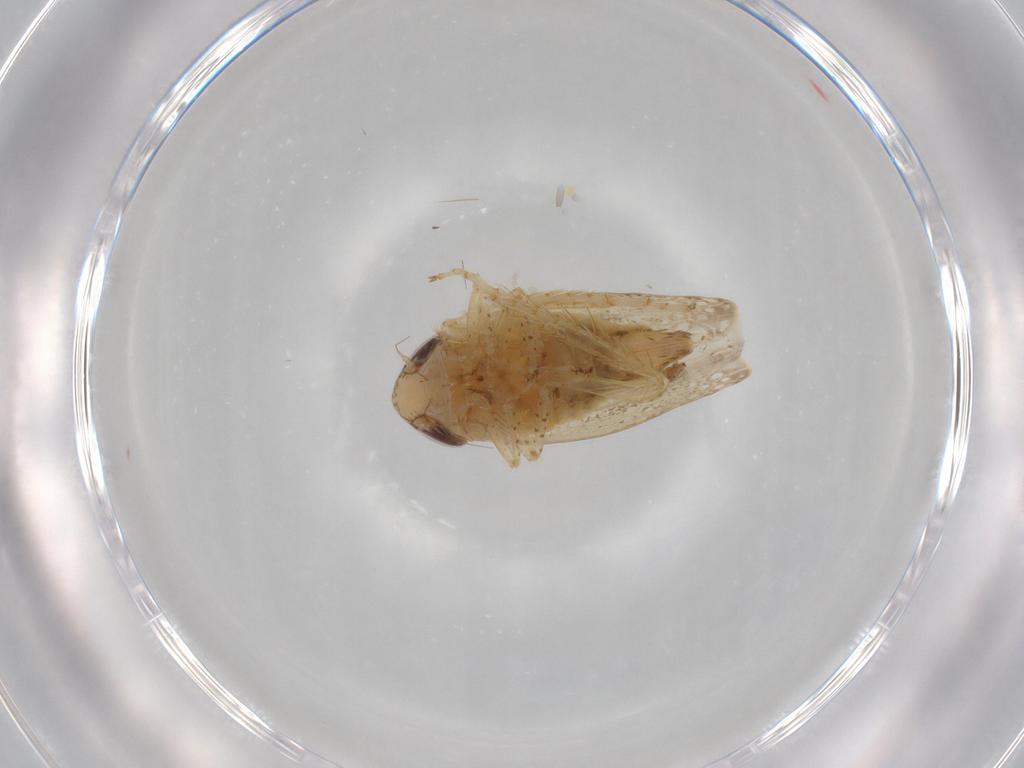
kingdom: Animalia
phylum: Arthropoda
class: Insecta
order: Hemiptera
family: Cicadellidae
